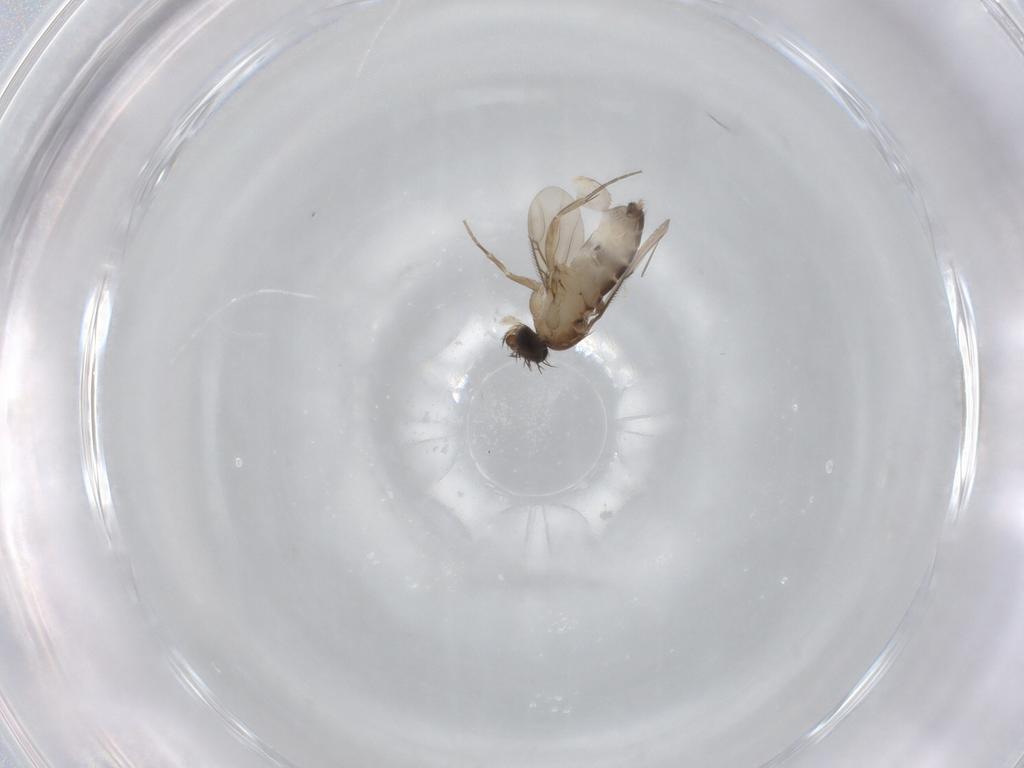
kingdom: Animalia
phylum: Arthropoda
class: Insecta
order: Diptera
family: Phoridae
